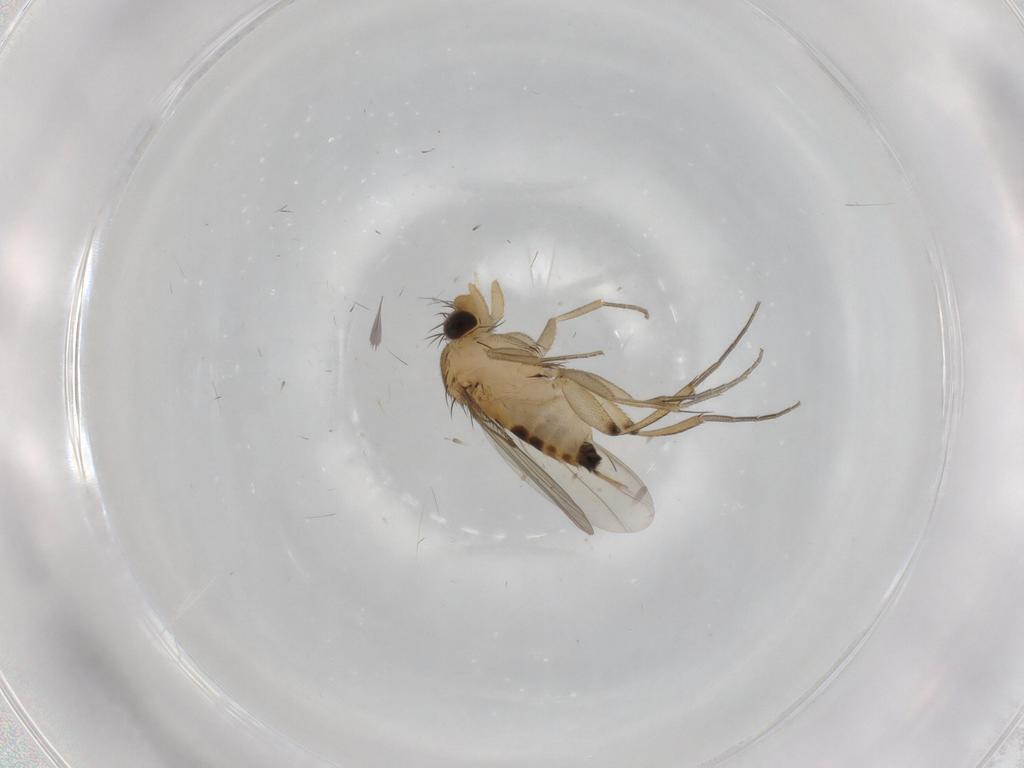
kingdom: Animalia
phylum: Arthropoda
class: Insecta
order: Diptera
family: Phoridae
